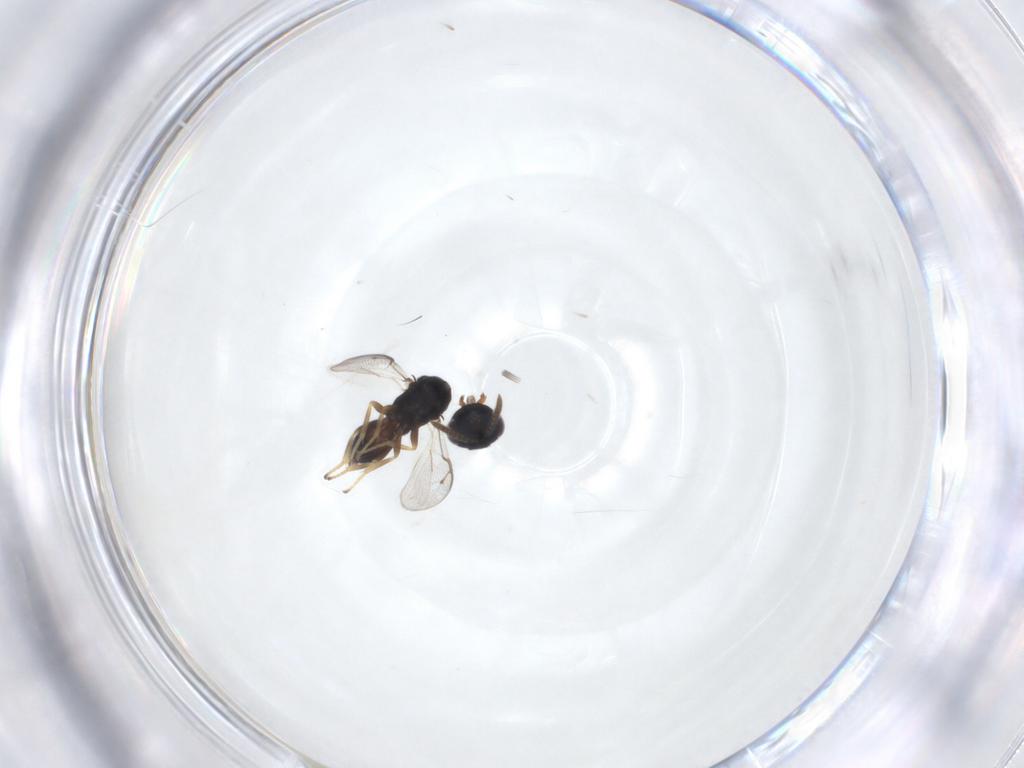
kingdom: Animalia
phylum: Arthropoda
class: Insecta
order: Hymenoptera
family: Pteromalidae
